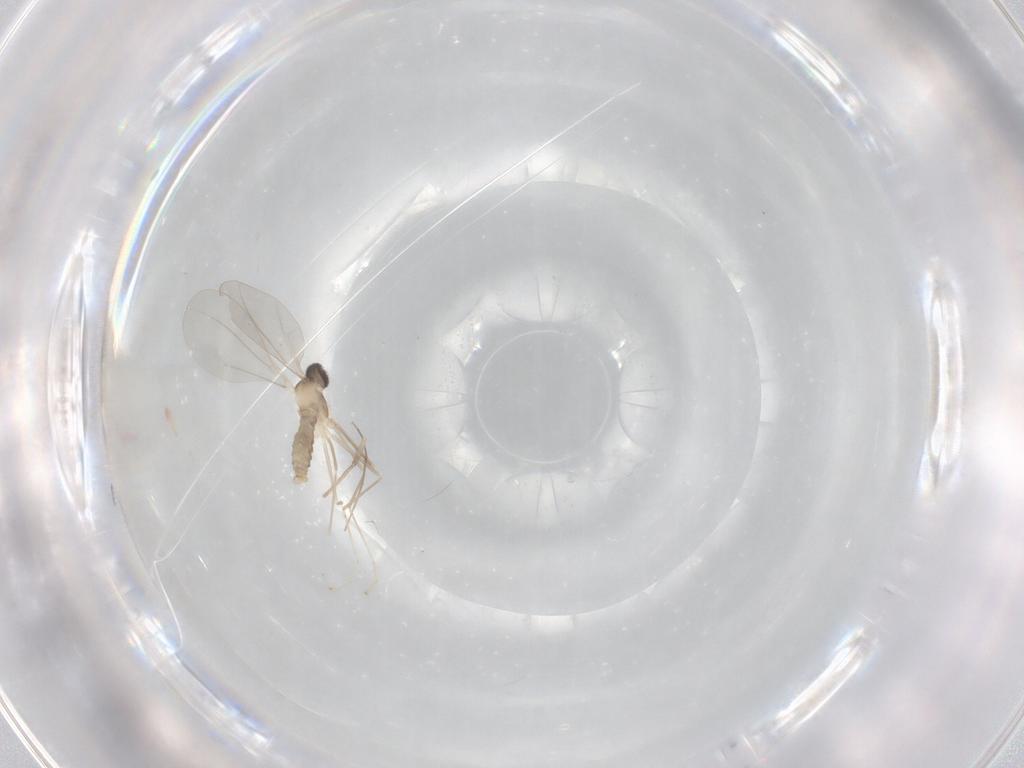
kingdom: Animalia
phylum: Arthropoda
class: Insecta
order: Diptera
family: Cecidomyiidae
